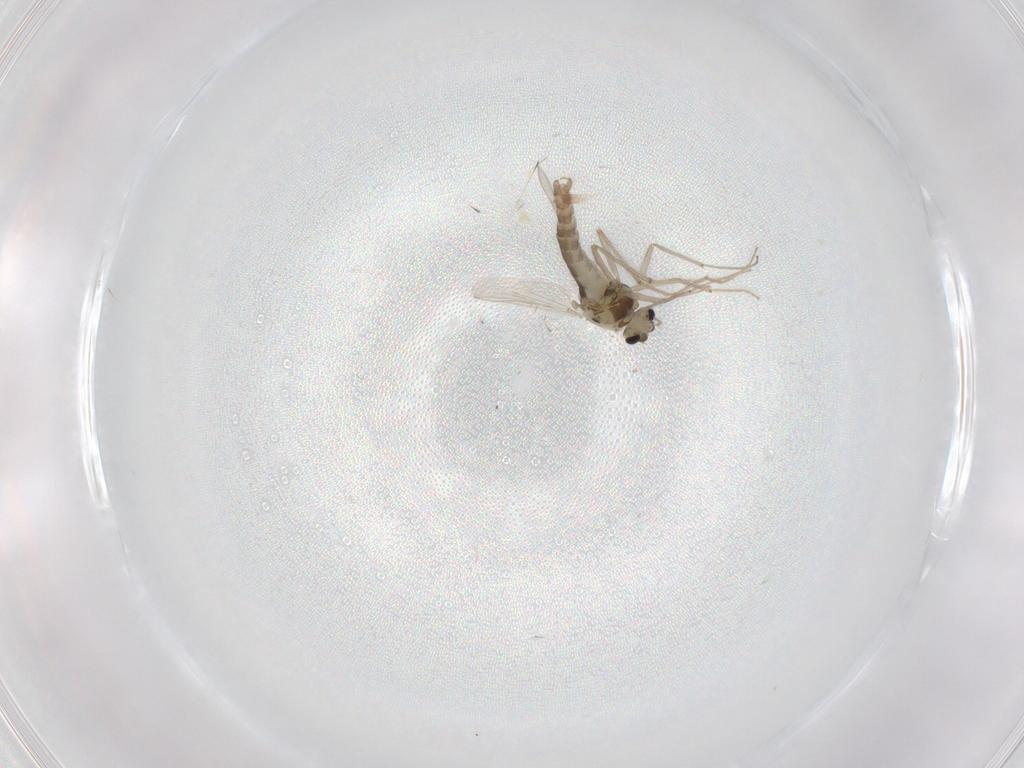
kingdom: Animalia
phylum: Arthropoda
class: Insecta
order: Diptera
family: Chironomidae
